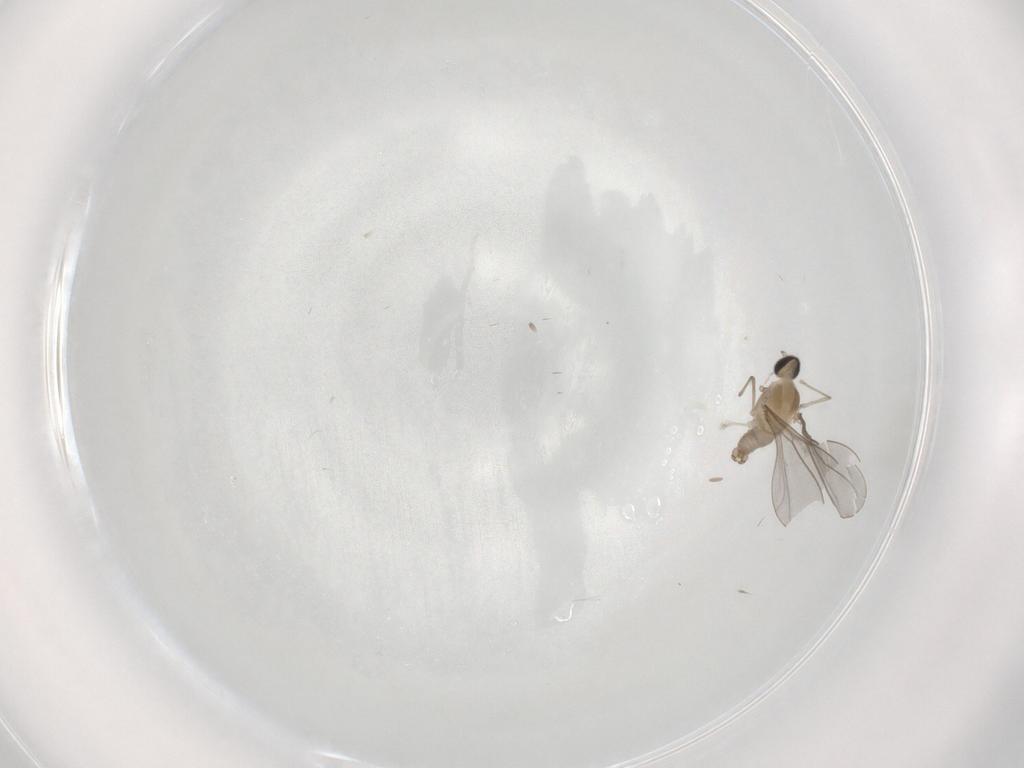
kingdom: Animalia
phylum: Arthropoda
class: Insecta
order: Diptera
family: Cecidomyiidae
